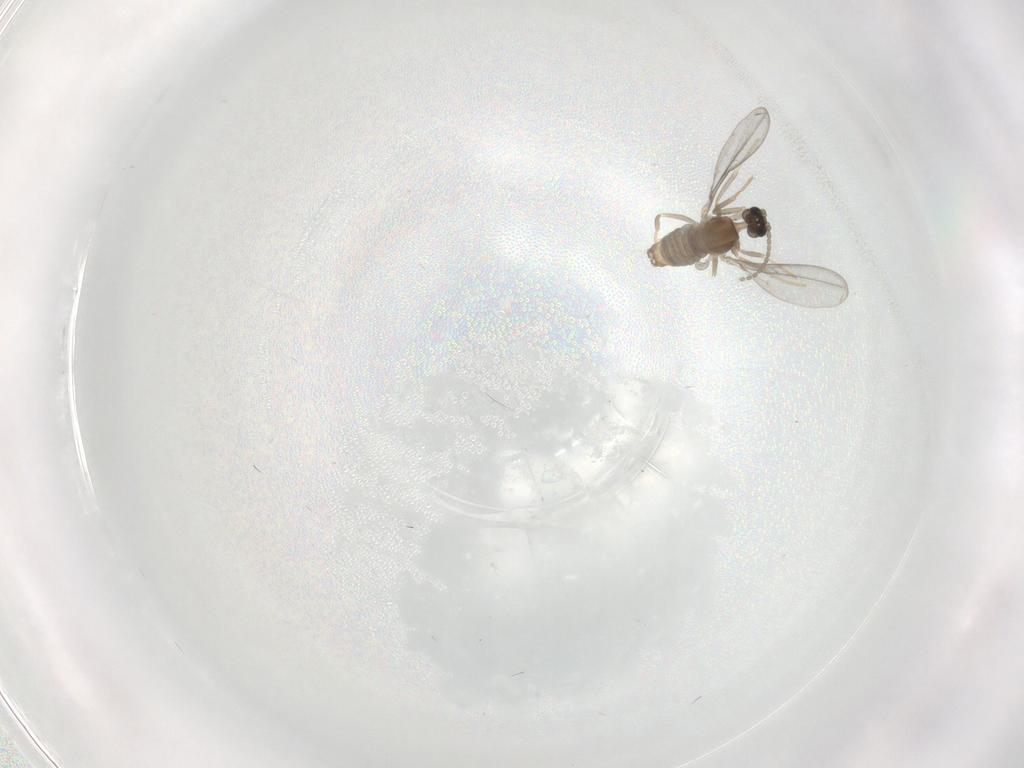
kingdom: Animalia
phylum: Arthropoda
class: Insecta
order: Diptera
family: Cecidomyiidae
